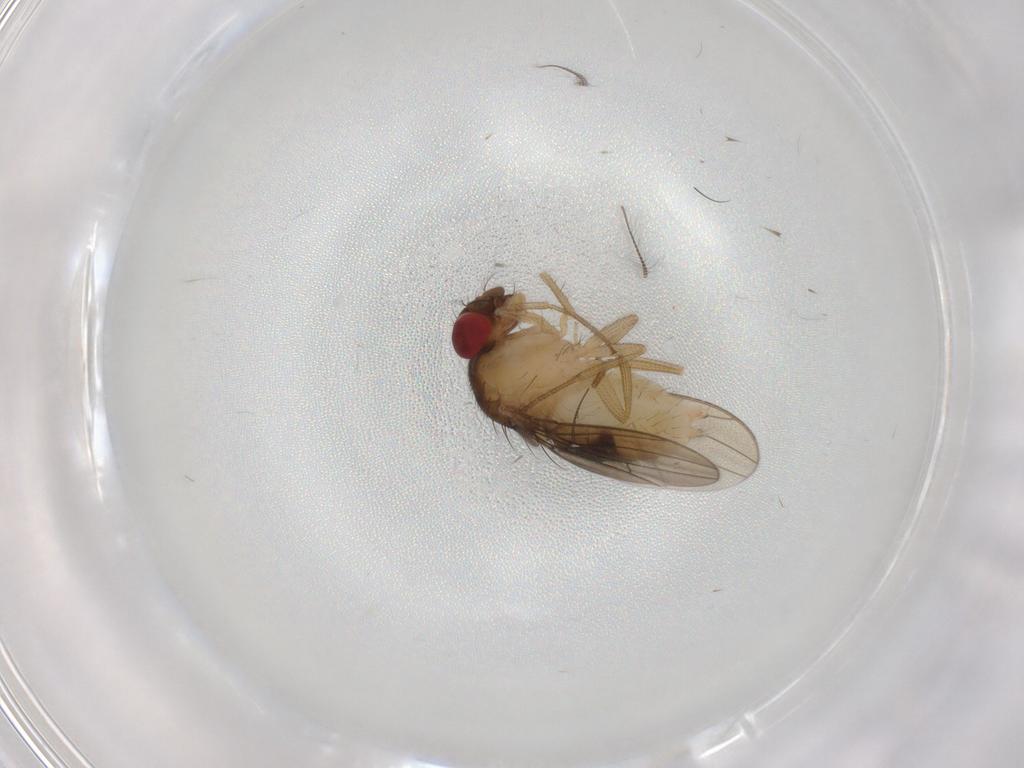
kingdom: Animalia
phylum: Arthropoda
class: Insecta
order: Diptera
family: Drosophilidae
